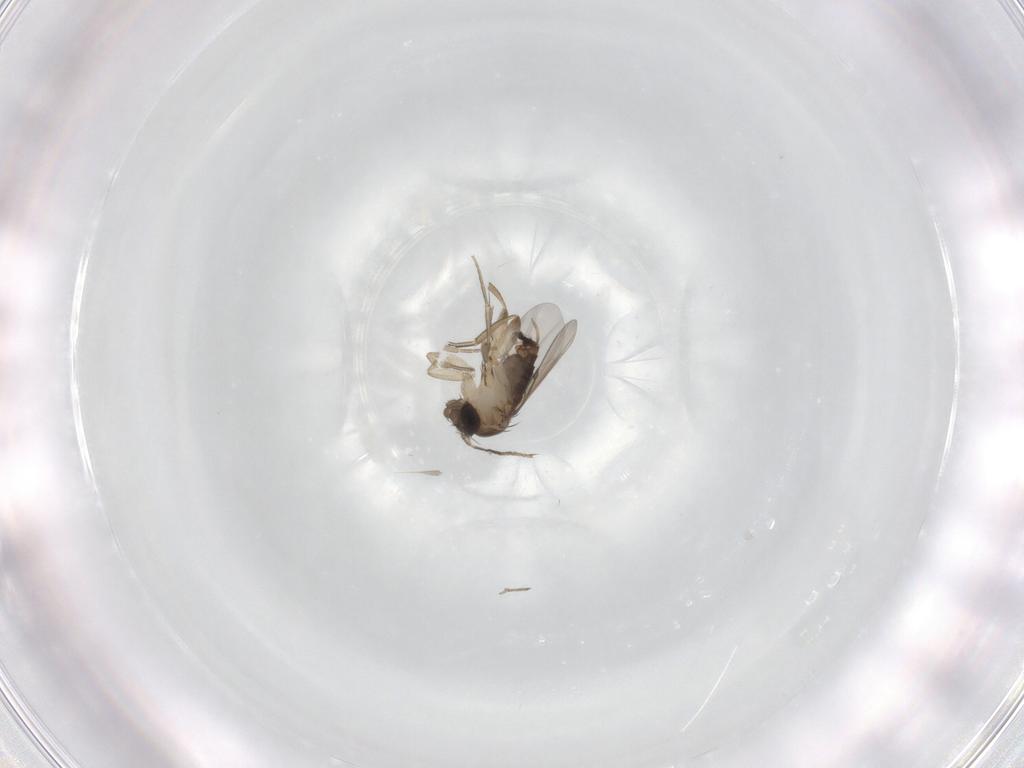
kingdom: Animalia
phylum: Arthropoda
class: Insecta
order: Diptera
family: Phoridae
